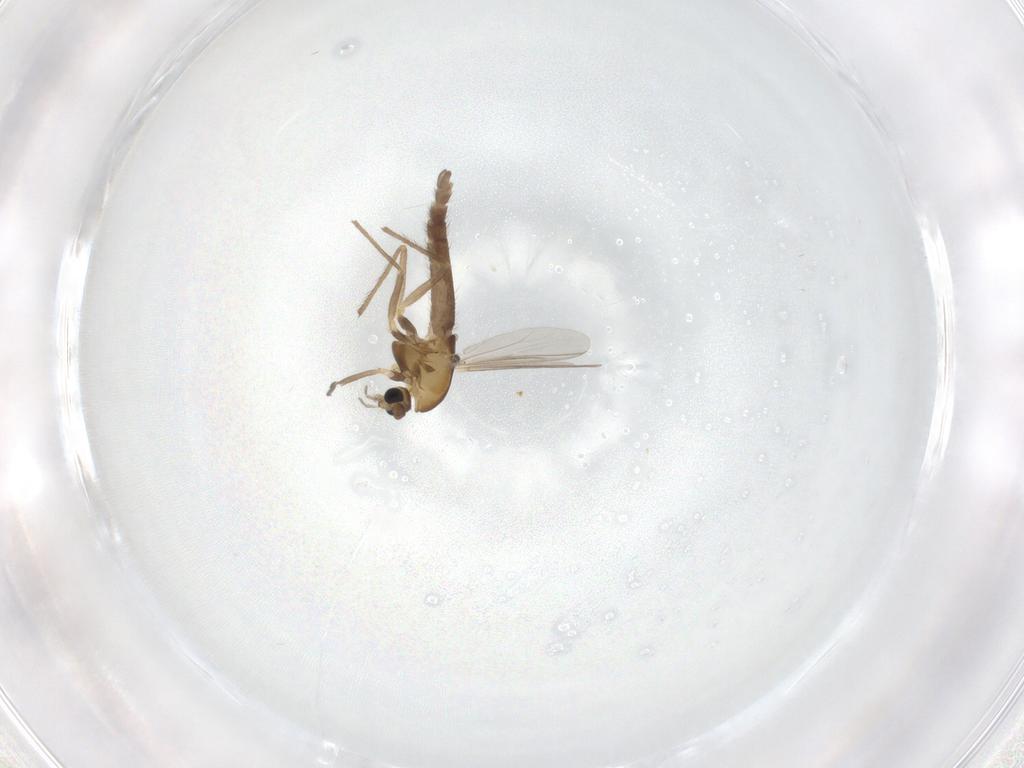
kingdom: Animalia
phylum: Arthropoda
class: Insecta
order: Diptera
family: Chironomidae
